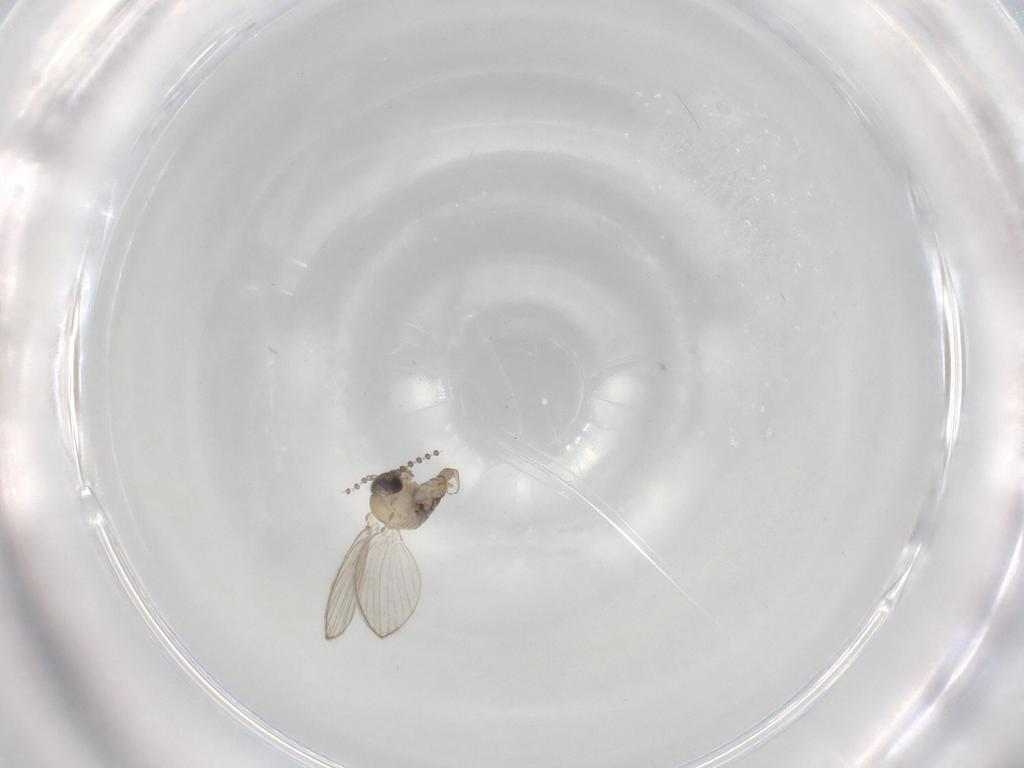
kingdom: Animalia
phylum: Arthropoda
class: Insecta
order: Diptera
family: Psychodidae
